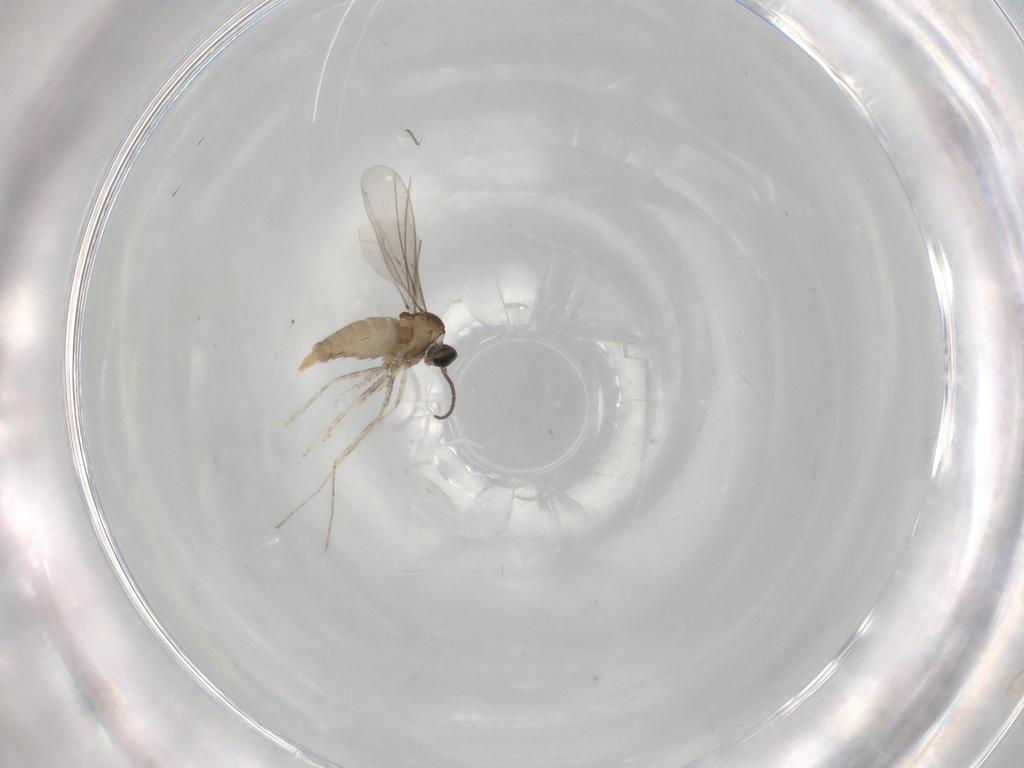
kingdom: Animalia
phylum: Arthropoda
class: Insecta
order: Diptera
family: Cecidomyiidae
